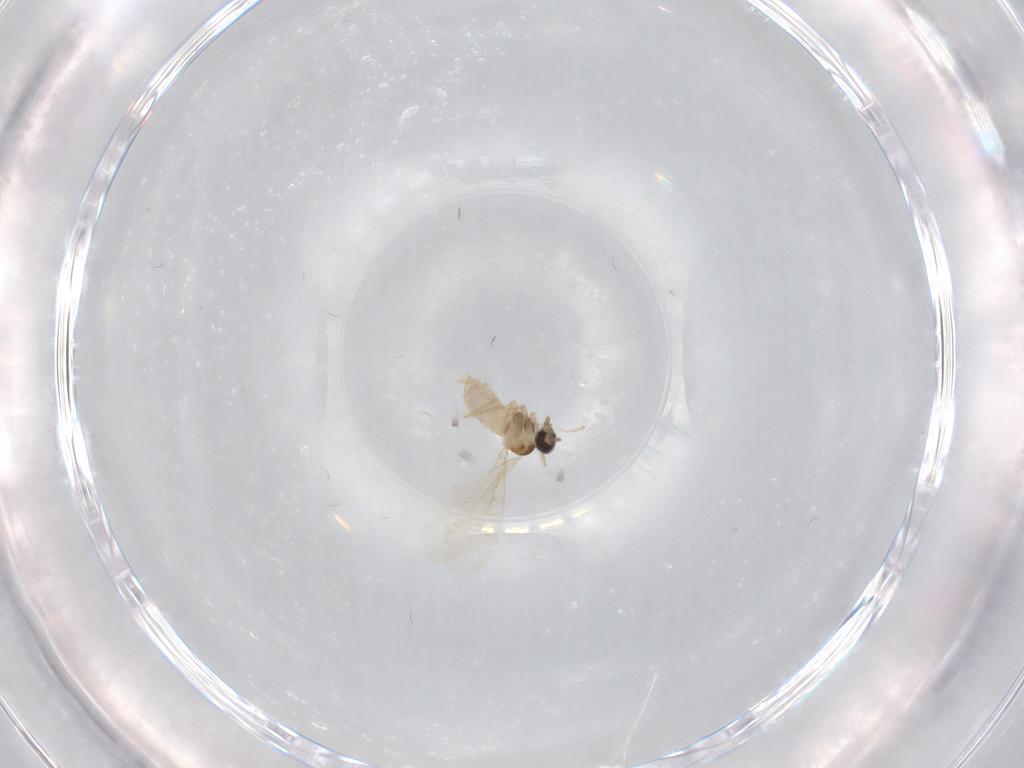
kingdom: Animalia
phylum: Arthropoda
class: Insecta
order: Diptera
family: Cecidomyiidae
